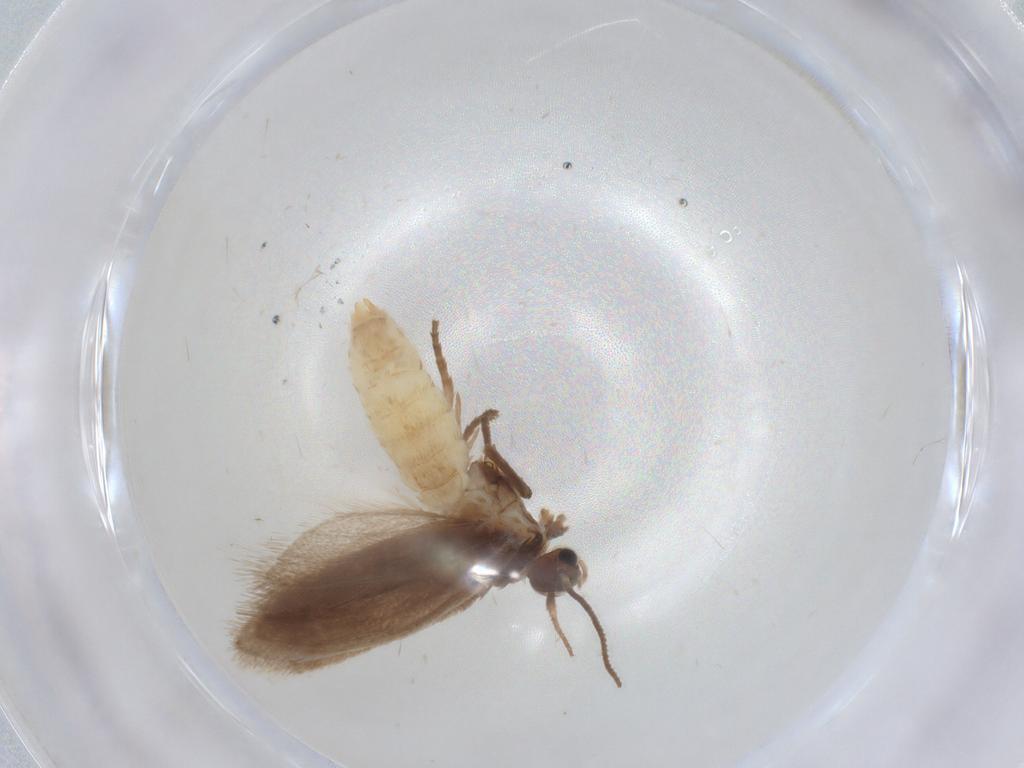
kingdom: Animalia
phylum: Arthropoda
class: Insecta
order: Lepidoptera
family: Limacodidae
